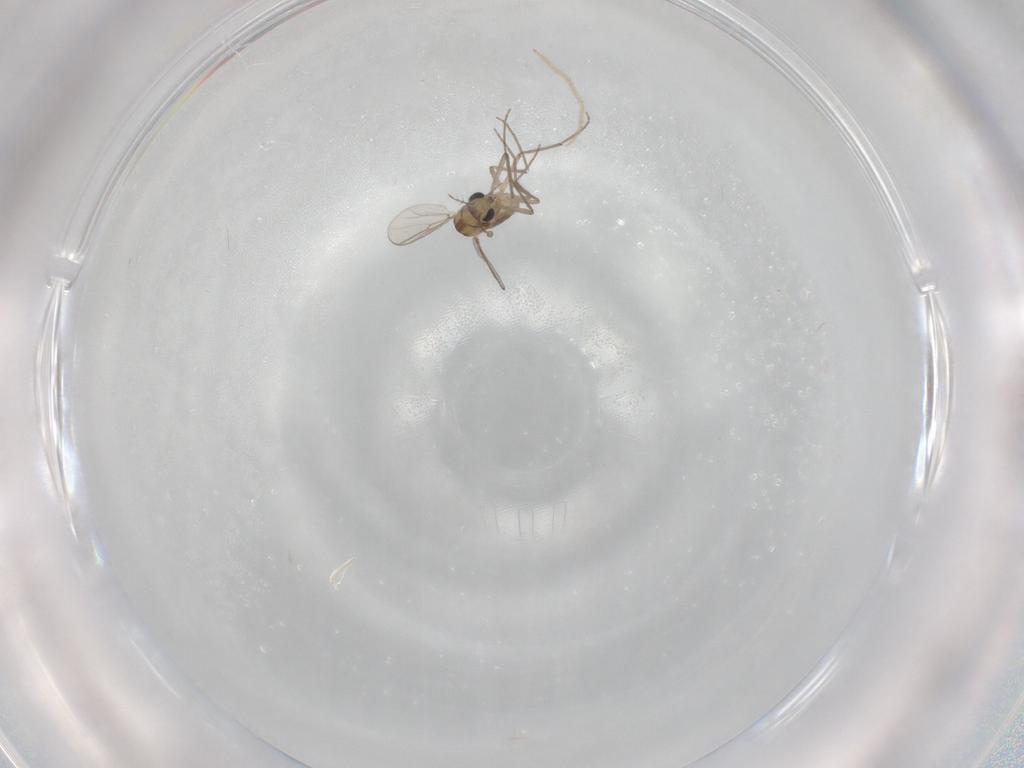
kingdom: Animalia
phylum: Arthropoda
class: Insecta
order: Diptera
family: Chironomidae
